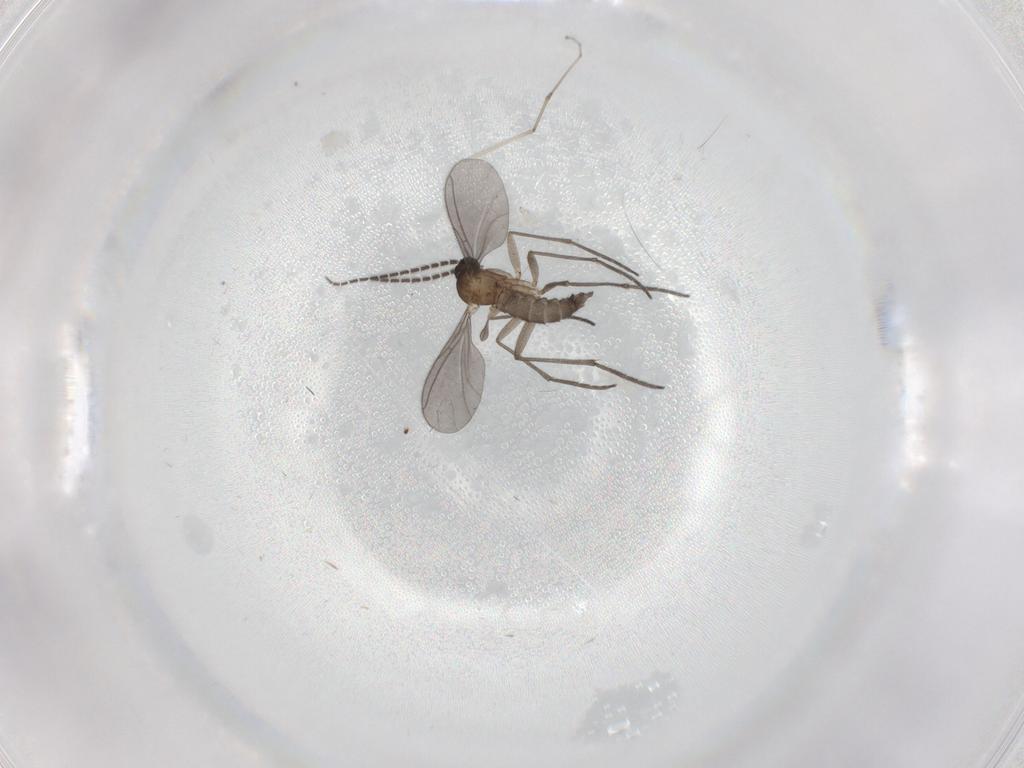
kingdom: Animalia
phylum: Arthropoda
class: Insecta
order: Diptera
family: Sciaridae
